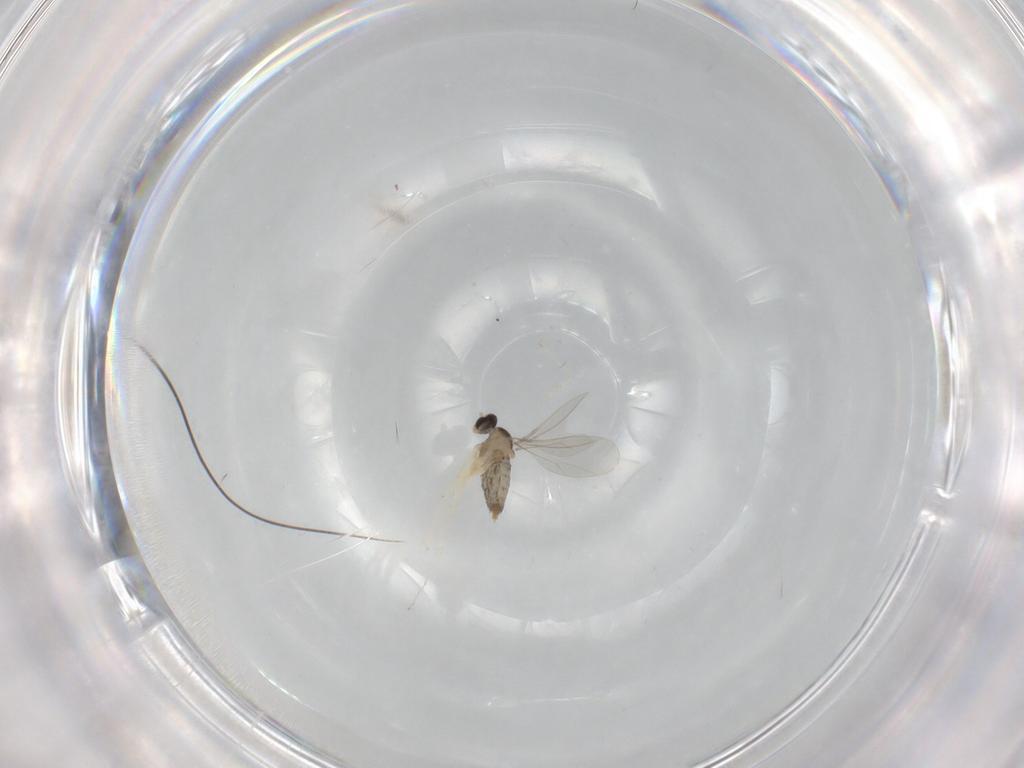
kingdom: Animalia
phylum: Arthropoda
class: Insecta
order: Diptera
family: Cecidomyiidae
